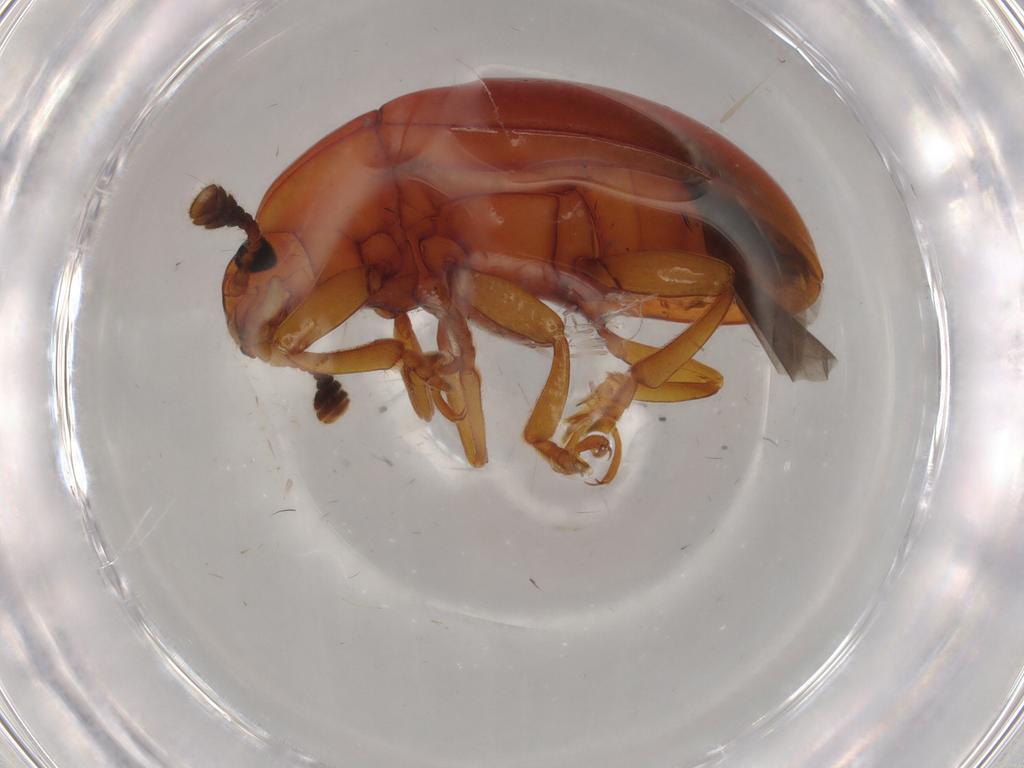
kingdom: Animalia
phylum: Arthropoda
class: Insecta
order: Coleoptera
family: Erotylidae
